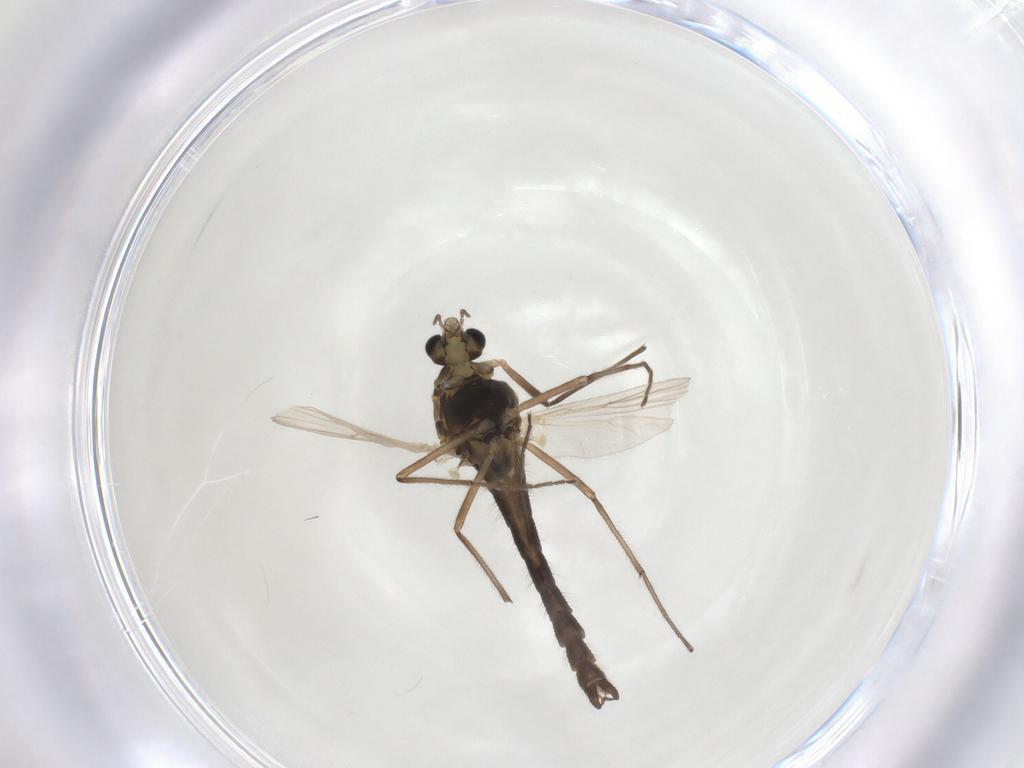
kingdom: Animalia
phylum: Arthropoda
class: Insecta
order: Diptera
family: Chironomidae
